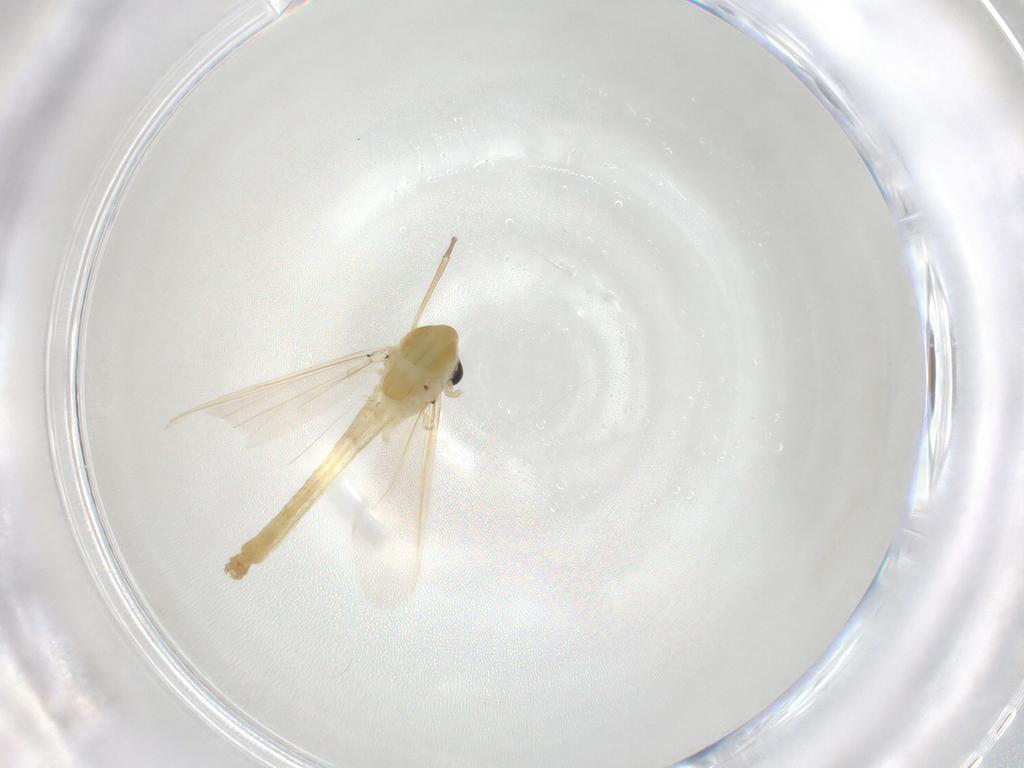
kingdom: Animalia
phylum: Arthropoda
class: Insecta
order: Diptera
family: Chironomidae
